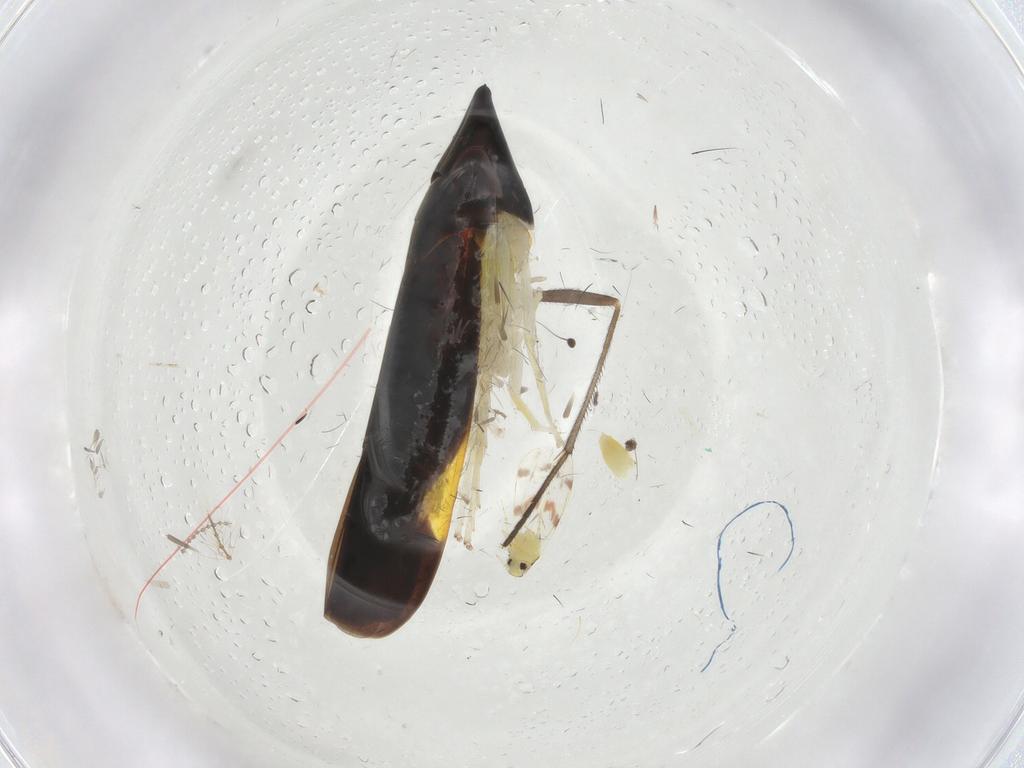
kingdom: Animalia
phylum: Arthropoda
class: Insecta
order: Hemiptera
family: Cicadellidae
